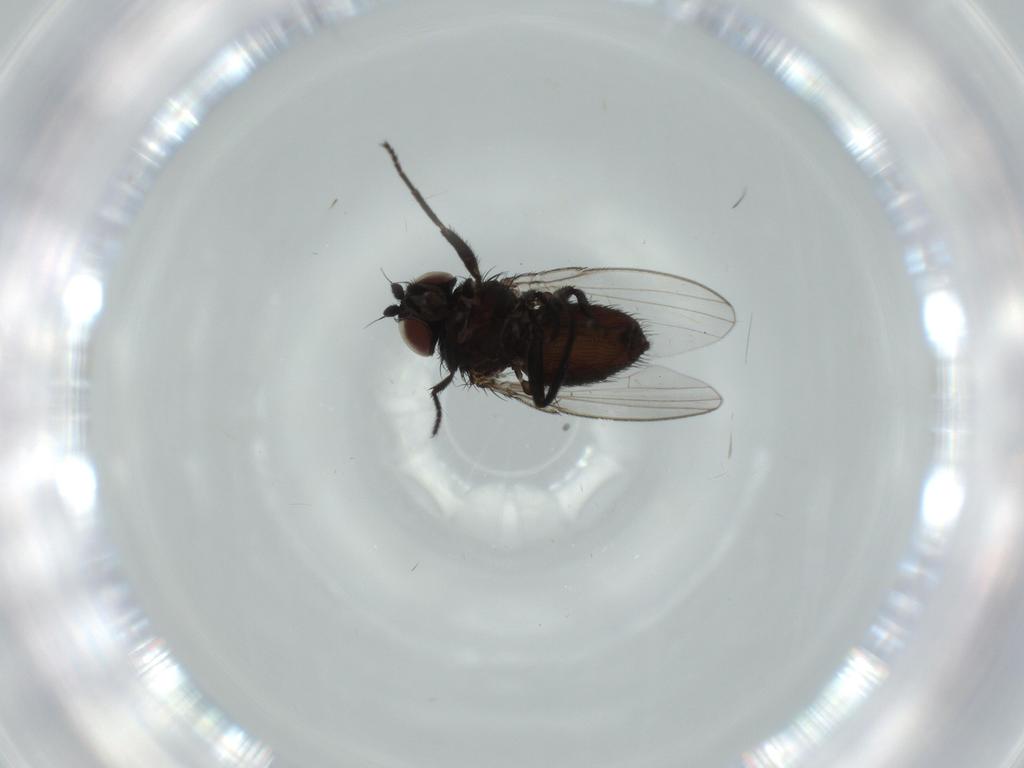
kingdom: Animalia
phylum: Arthropoda
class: Insecta
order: Diptera
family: Milichiidae
